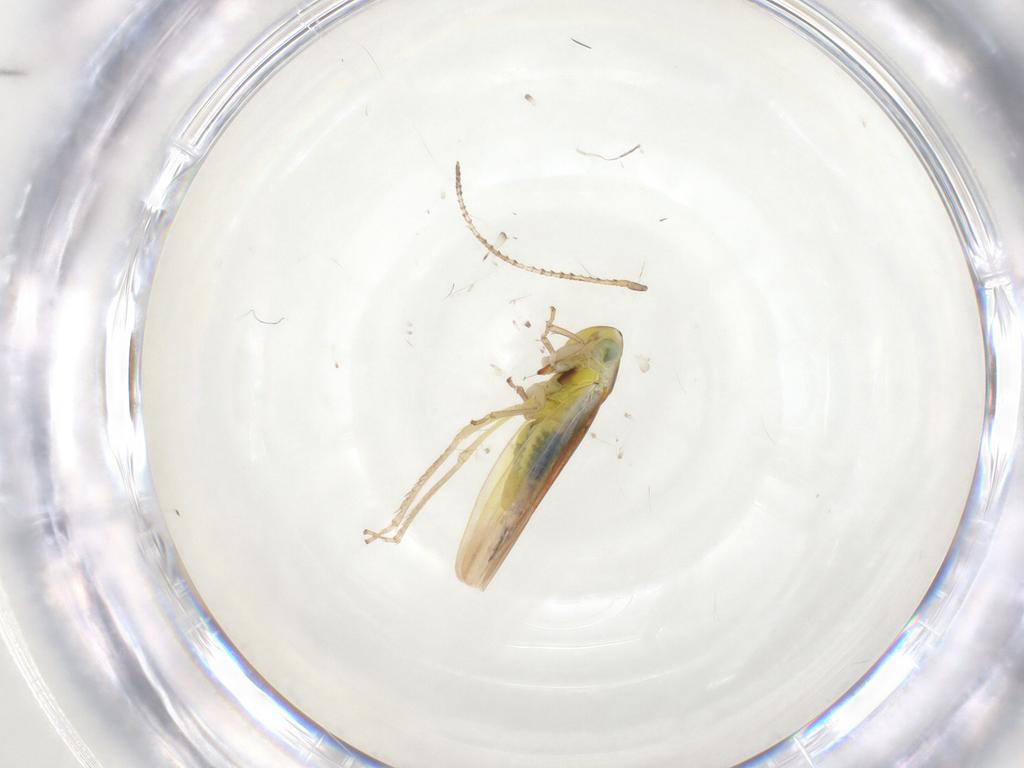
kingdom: Animalia
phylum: Arthropoda
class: Insecta
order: Hemiptera
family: Cicadellidae
